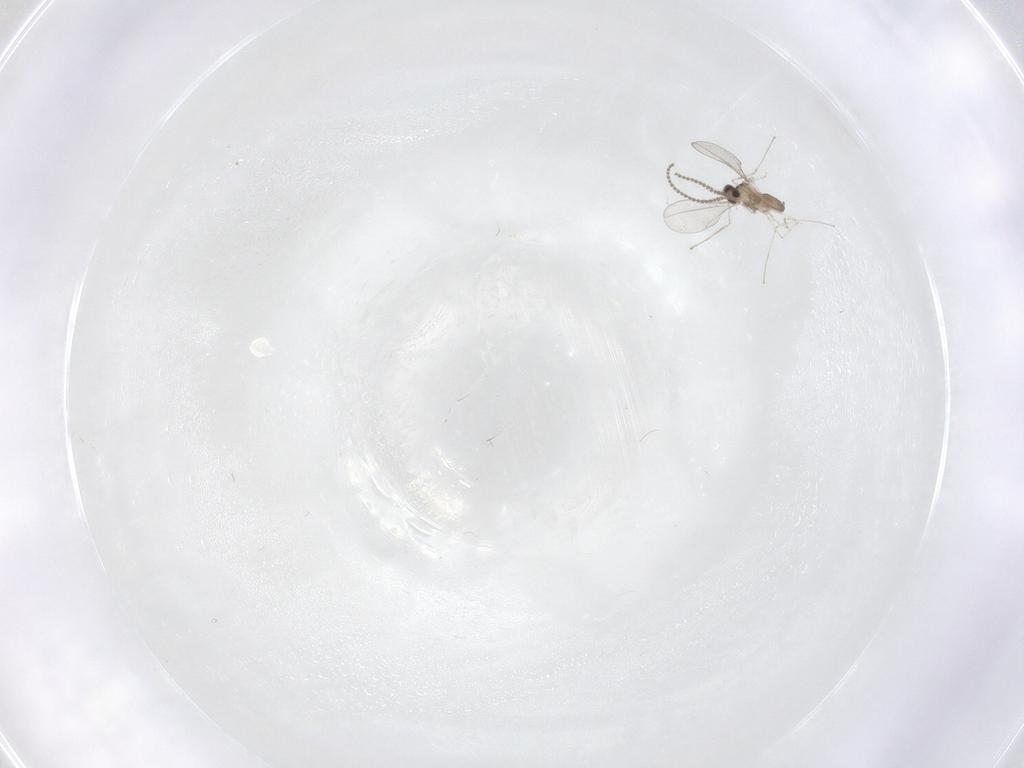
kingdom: Animalia
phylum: Arthropoda
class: Insecta
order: Diptera
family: Cecidomyiidae
